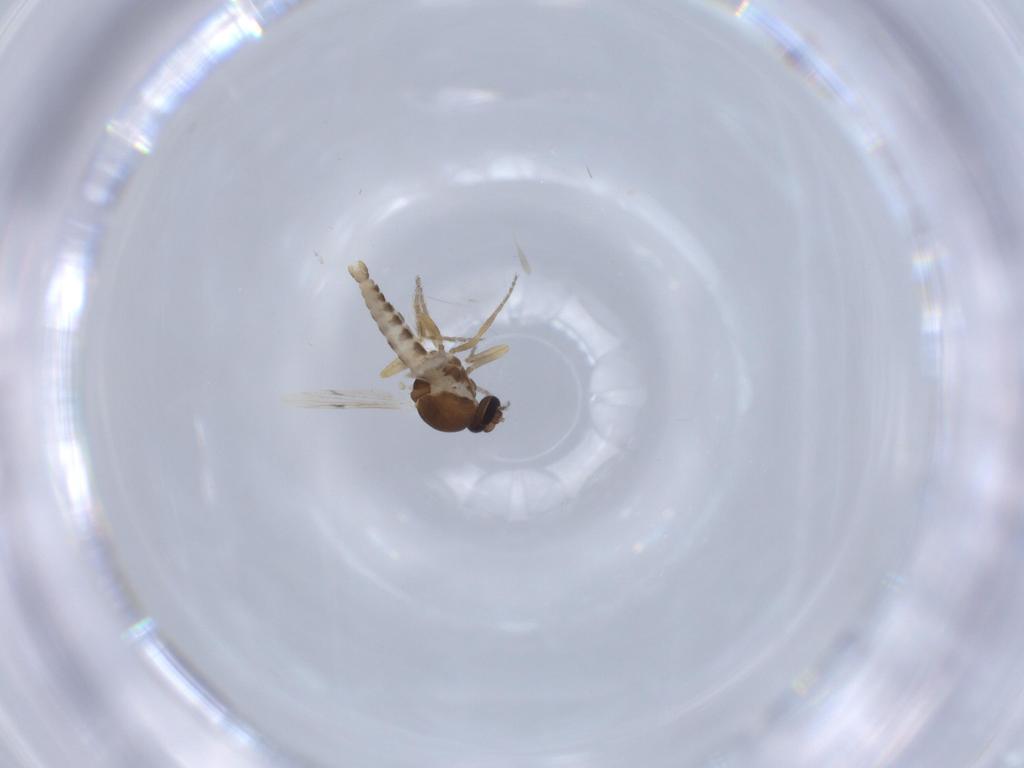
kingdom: Animalia
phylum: Arthropoda
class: Insecta
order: Diptera
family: Ceratopogonidae
